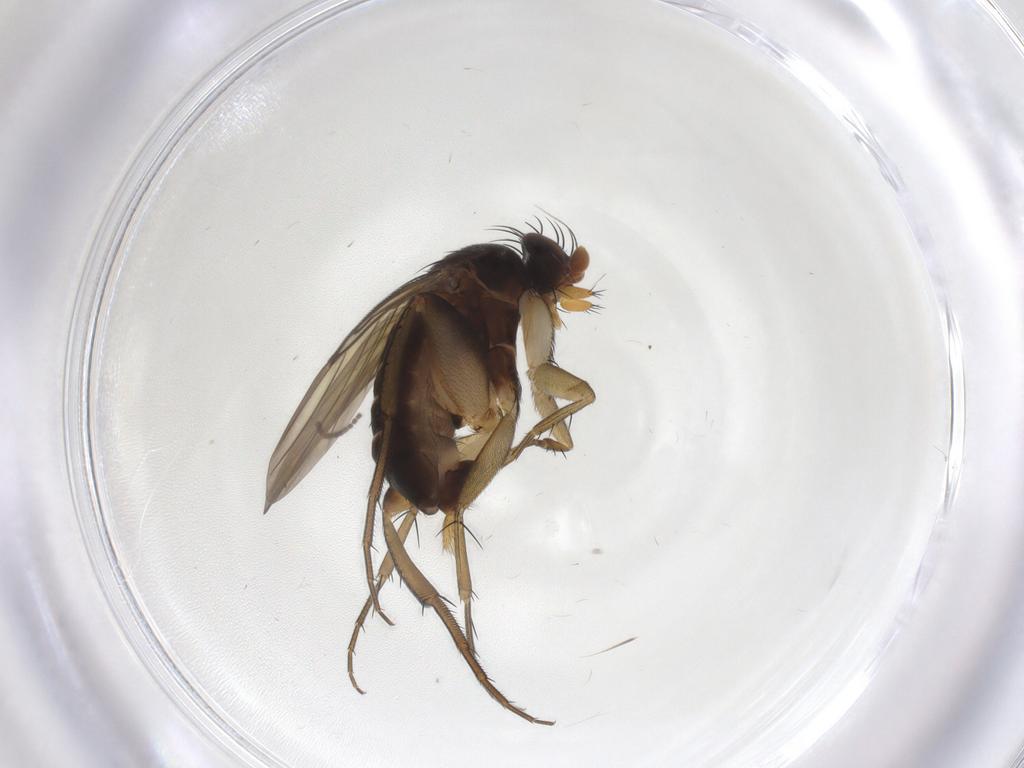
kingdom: Animalia
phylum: Arthropoda
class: Insecta
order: Diptera
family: Phoridae
